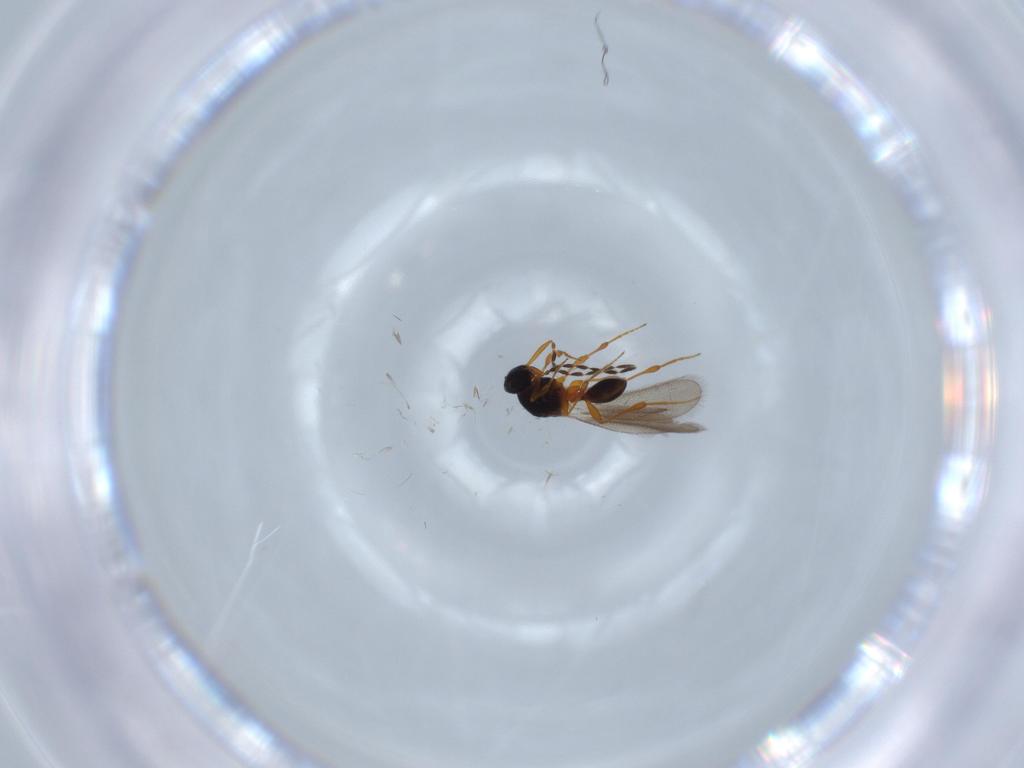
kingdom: Animalia
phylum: Arthropoda
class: Insecta
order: Hymenoptera
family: Platygastridae
